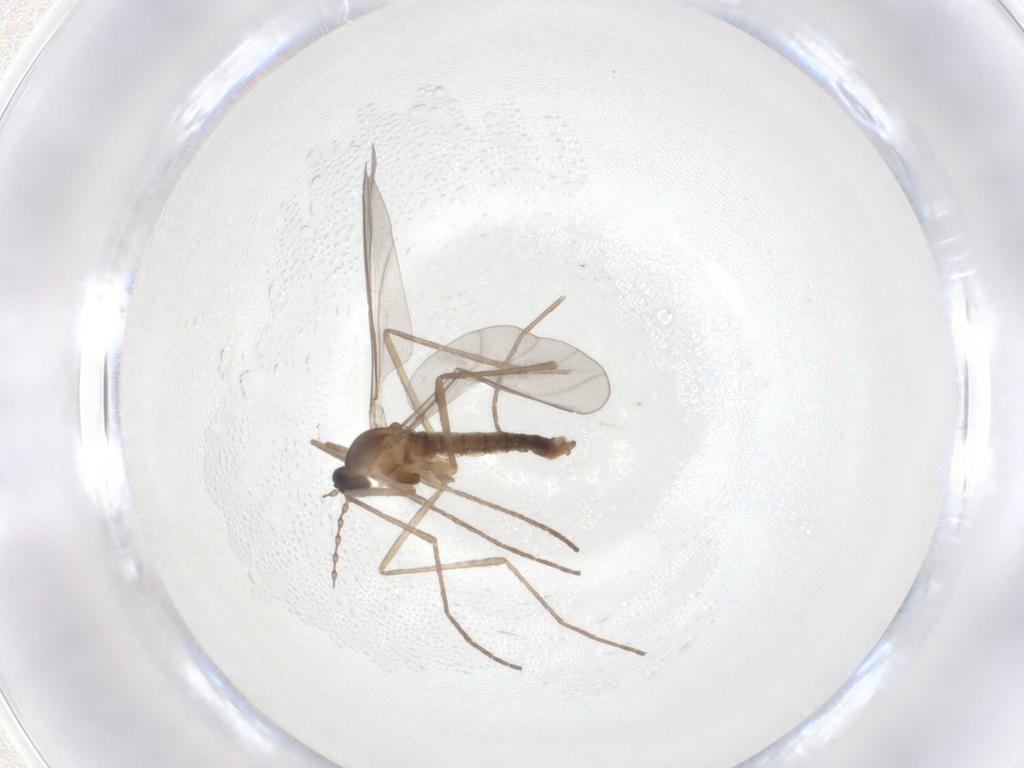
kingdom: Animalia
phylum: Arthropoda
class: Insecta
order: Diptera
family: Cecidomyiidae
